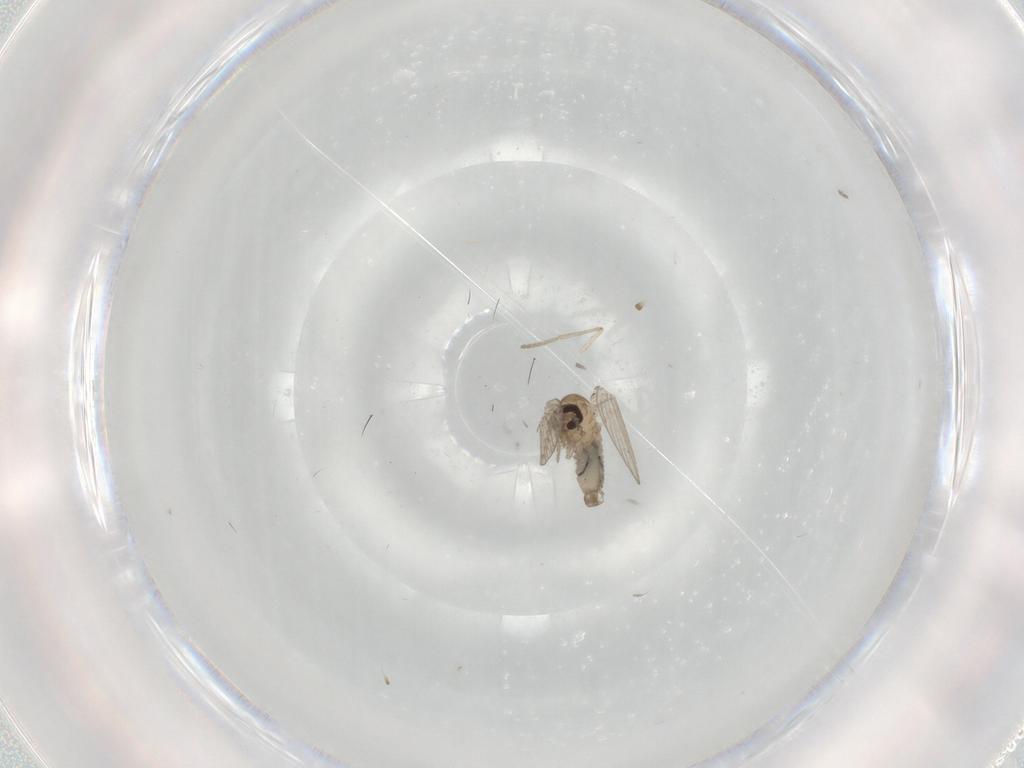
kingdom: Animalia
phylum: Arthropoda
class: Insecta
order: Diptera
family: Psychodidae
